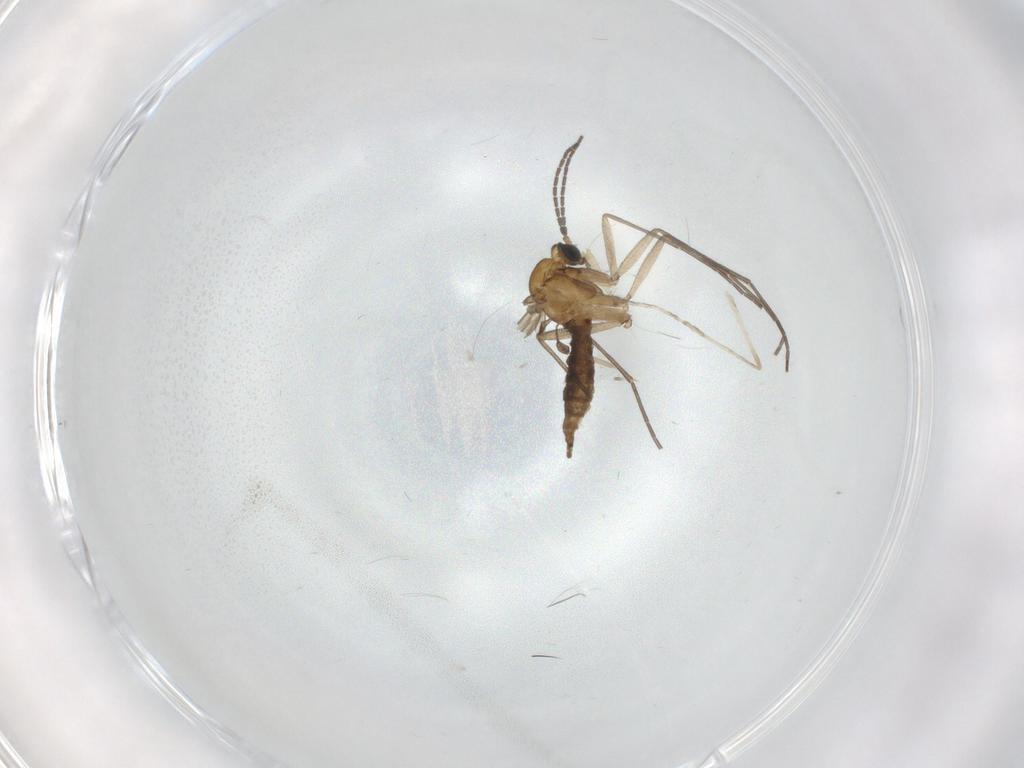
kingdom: Animalia
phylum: Arthropoda
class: Insecta
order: Diptera
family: Sciaridae
